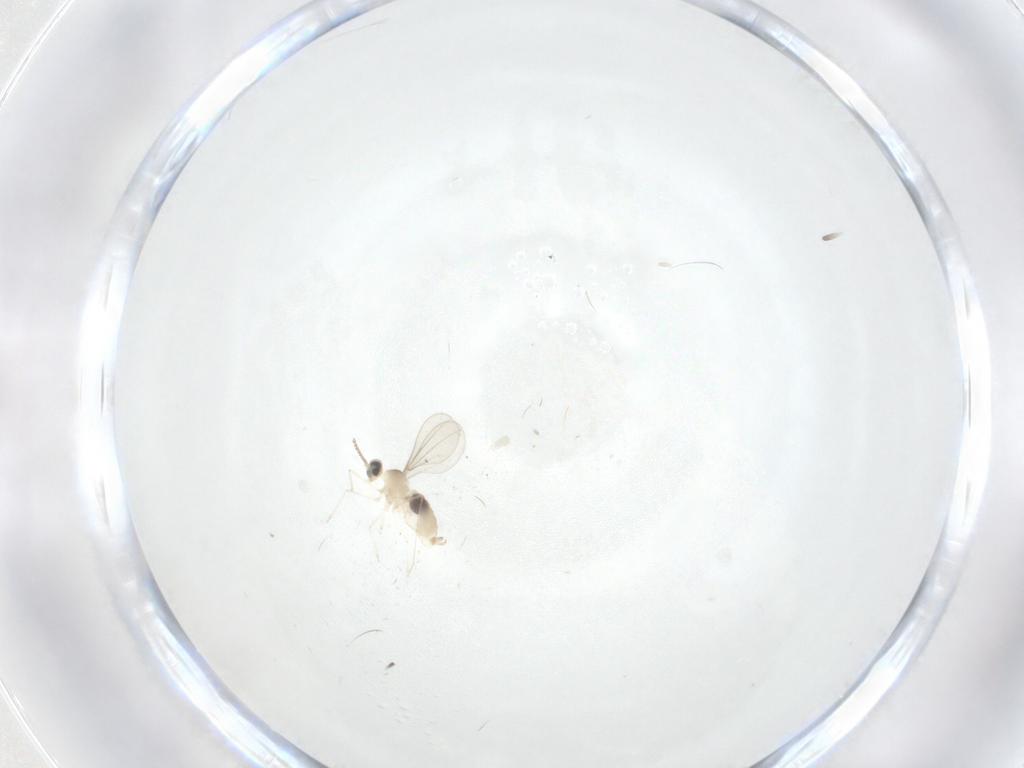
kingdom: Animalia
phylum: Arthropoda
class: Insecta
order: Diptera
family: Cecidomyiidae
